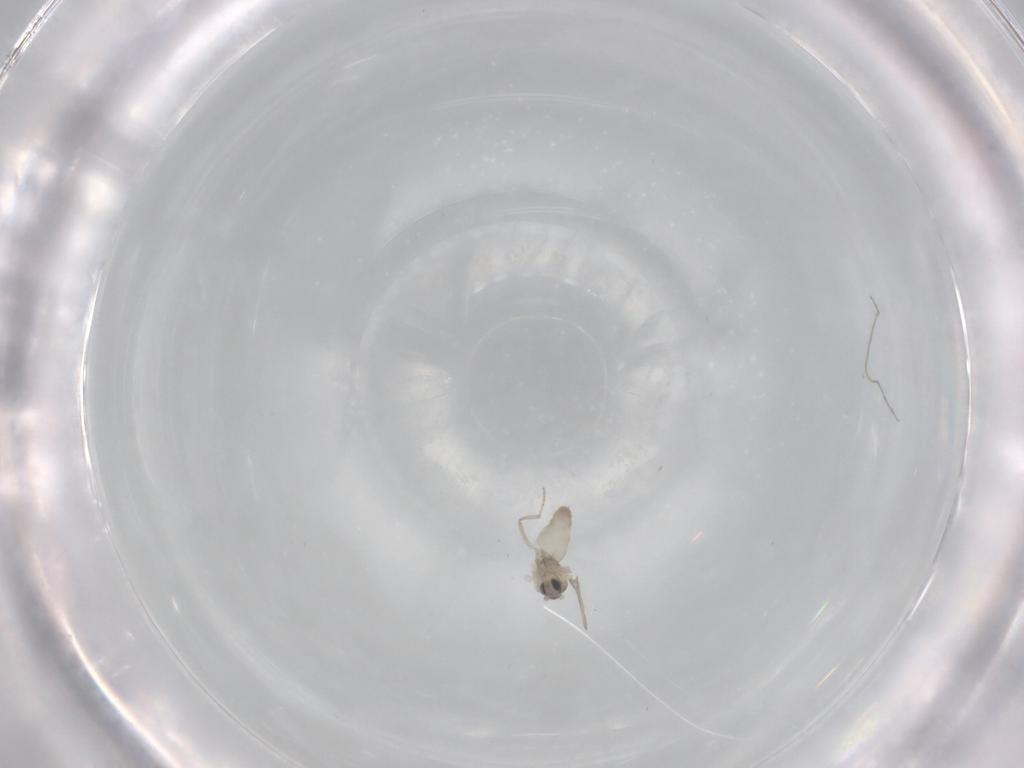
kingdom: Animalia
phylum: Arthropoda
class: Insecta
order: Diptera
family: Cecidomyiidae
